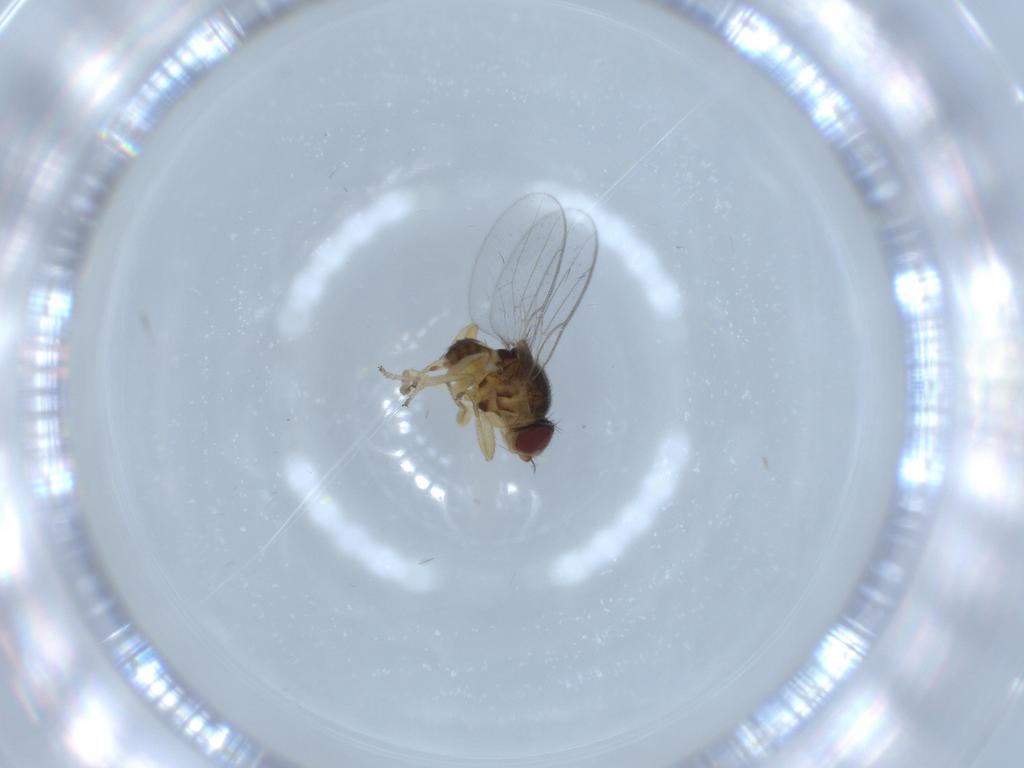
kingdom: Animalia
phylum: Arthropoda
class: Insecta
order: Diptera
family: Chloropidae
